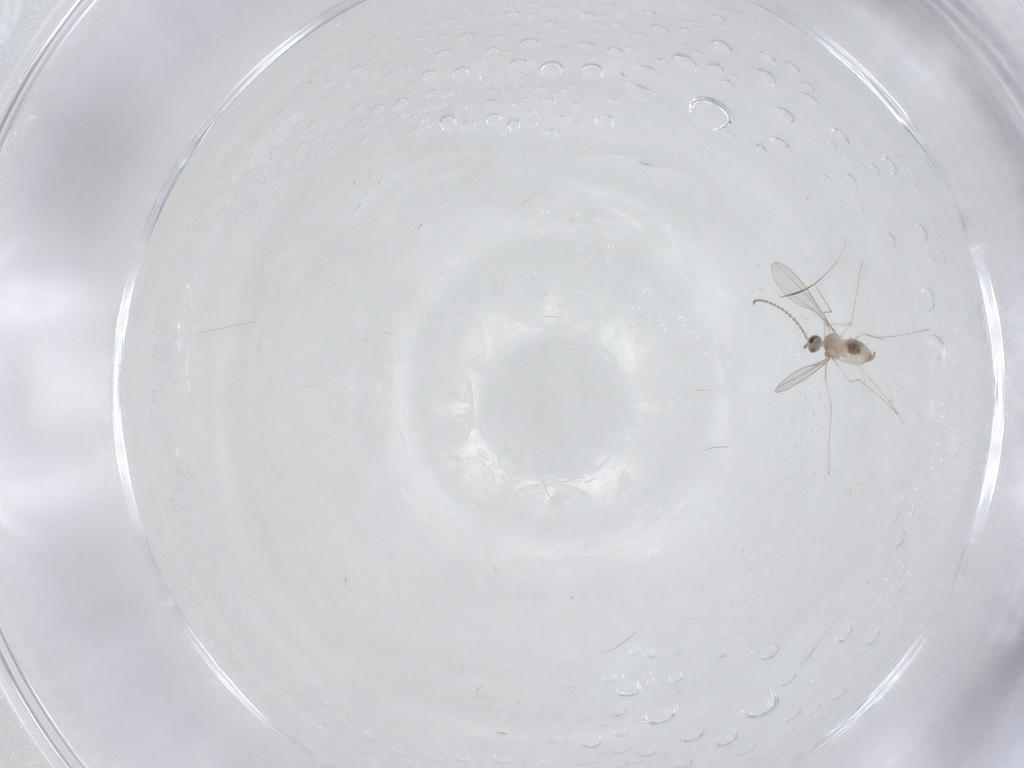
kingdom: Animalia
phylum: Arthropoda
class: Insecta
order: Diptera
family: Cecidomyiidae
